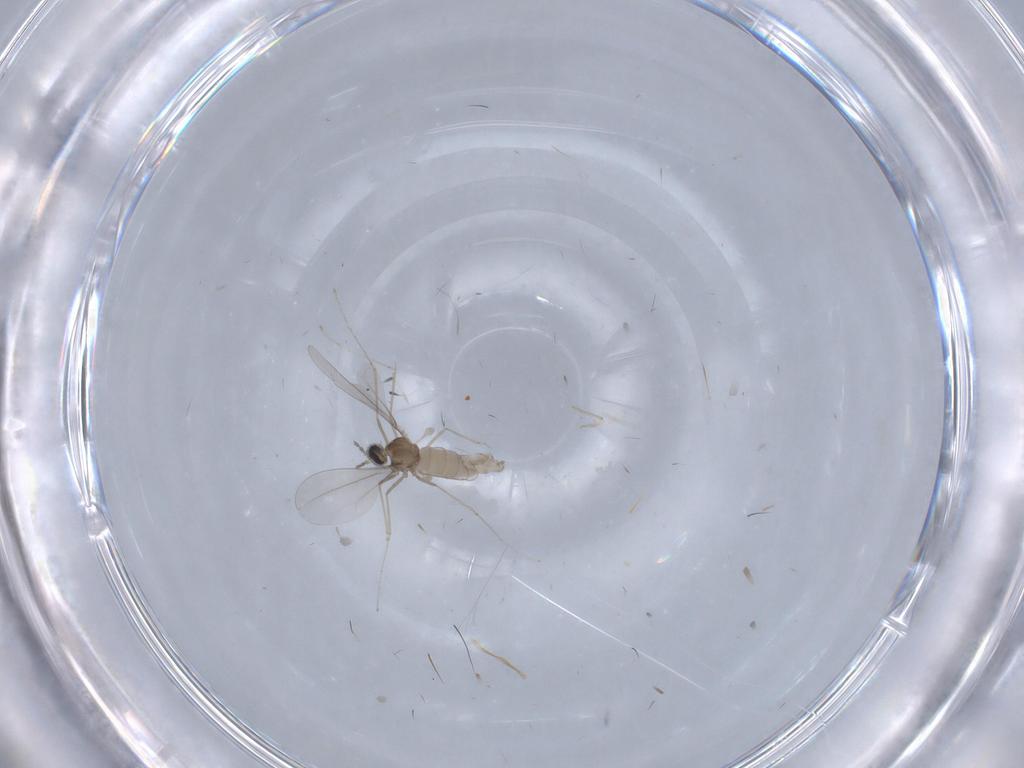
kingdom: Animalia
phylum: Arthropoda
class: Insecta
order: Diptera
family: Cecidomyiidae
